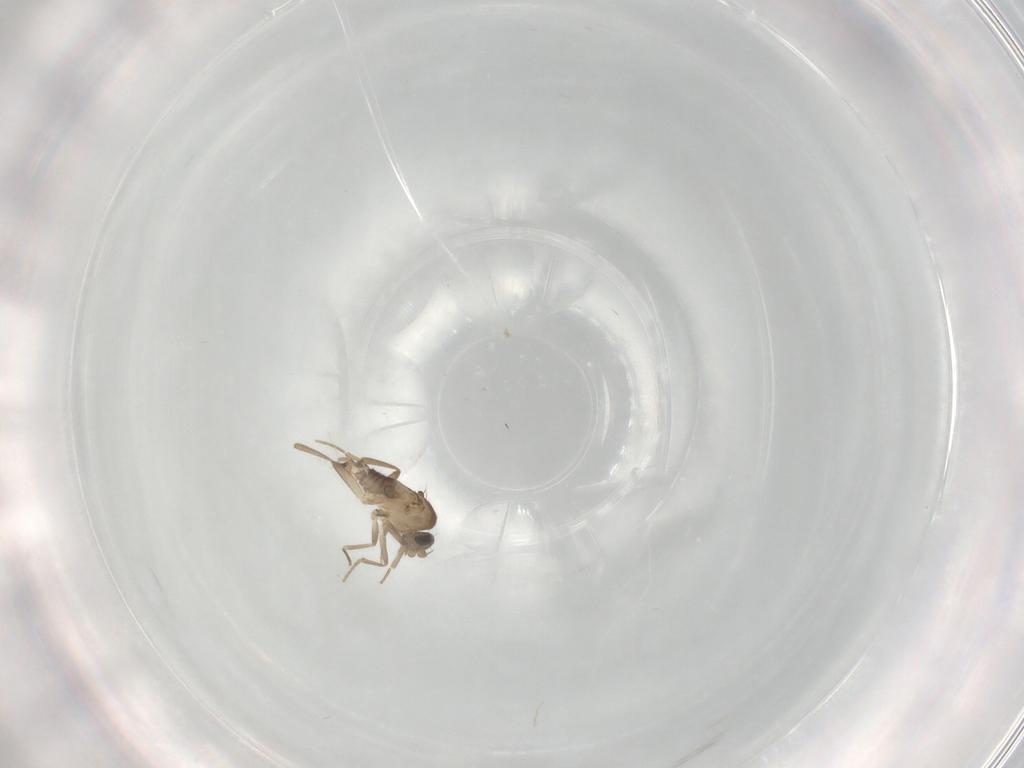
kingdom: Animalia
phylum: Arthropoda
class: Insecta
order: Diptera
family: Keroplatidae
